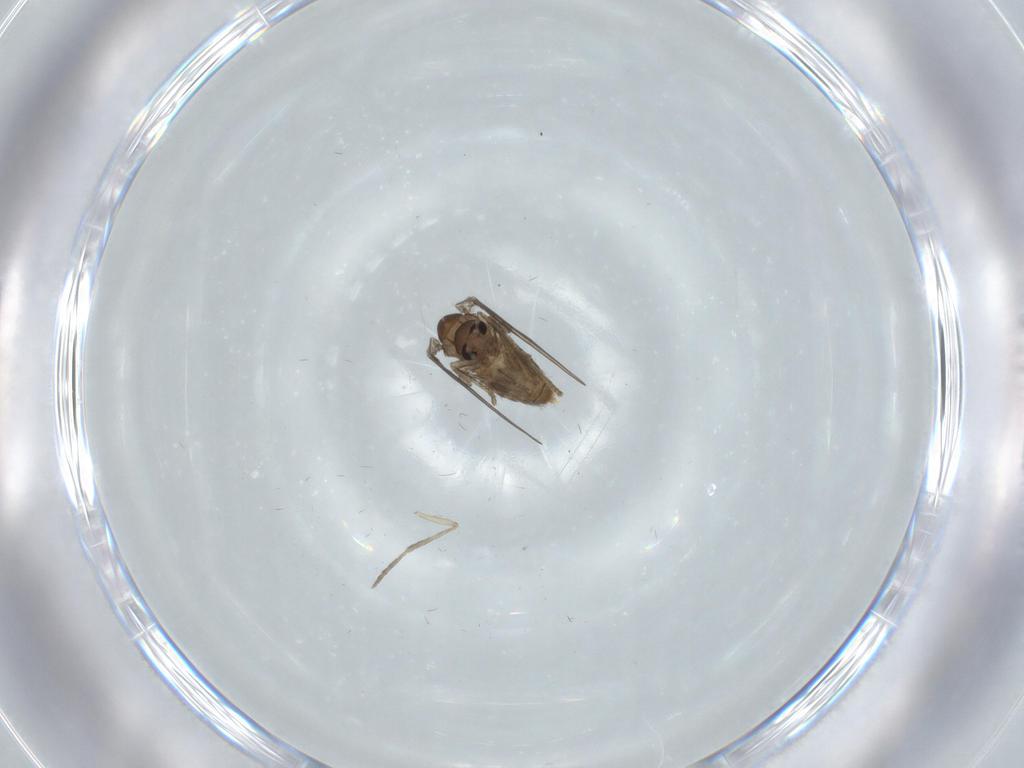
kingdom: Animalia
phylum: Arthropoda
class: Insecta
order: Diptera
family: Psychodidae
